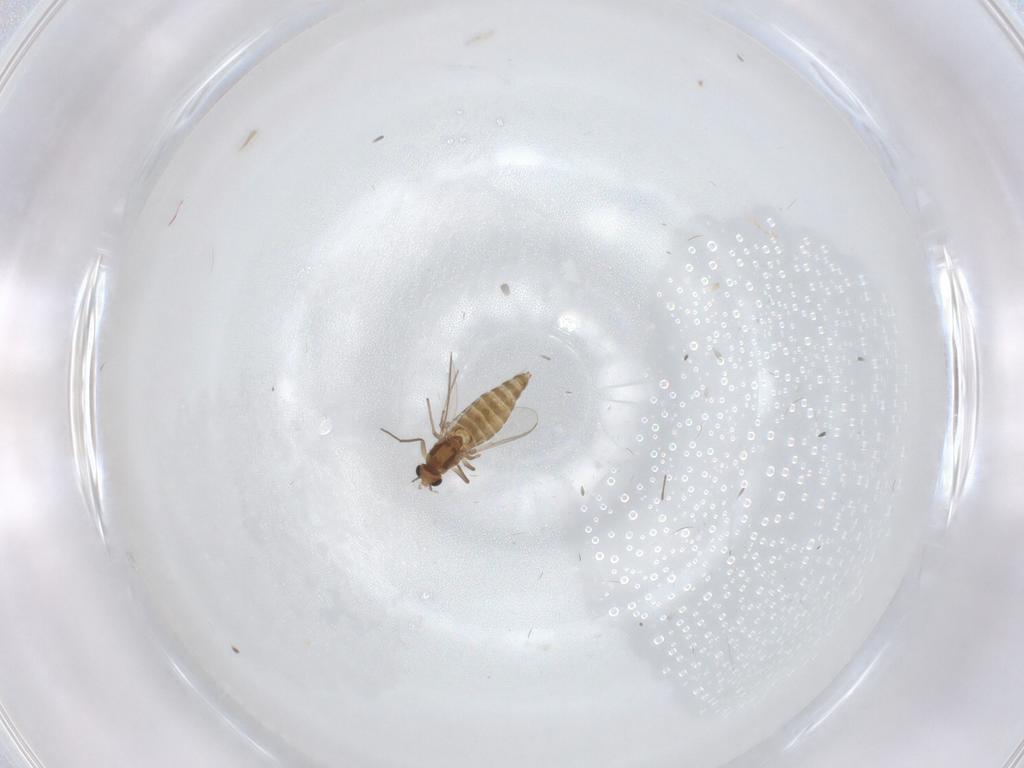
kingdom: Animalia
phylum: Arthropoda
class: Insecta
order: Diptera
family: Chironomidae
